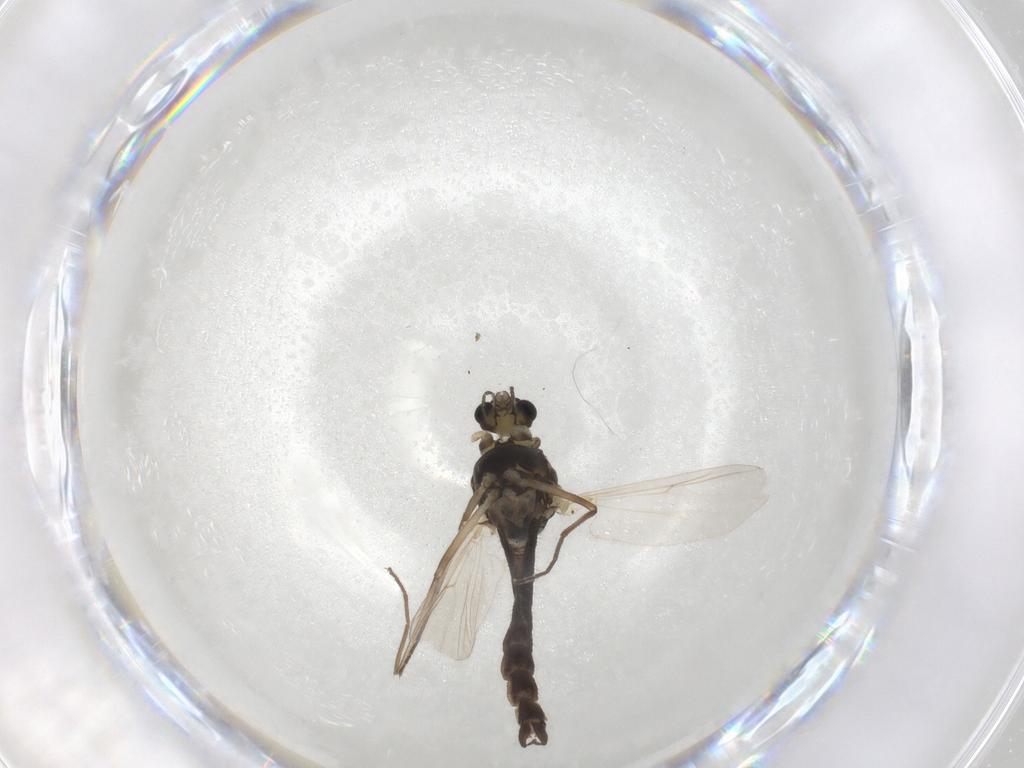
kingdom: Animalia
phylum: Arthropoda
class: Insecta
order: Diptera
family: Chironomidae
